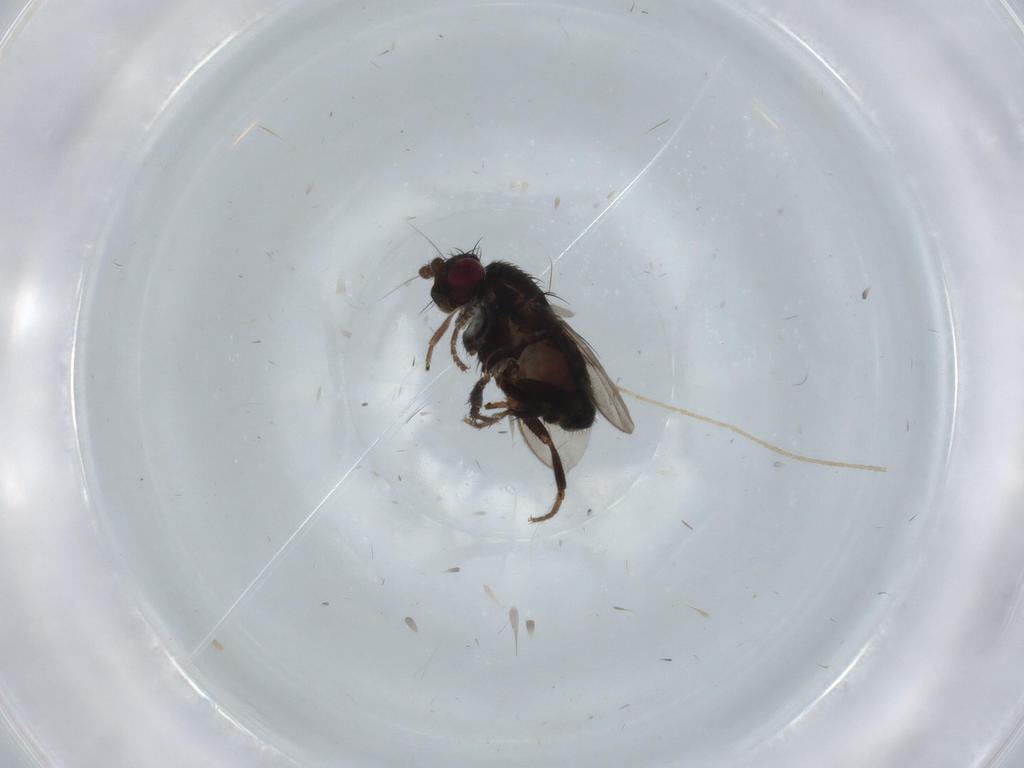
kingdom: Animalia
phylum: Arthropoda
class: Insecta
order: Diptera
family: Sphaeroceridae
